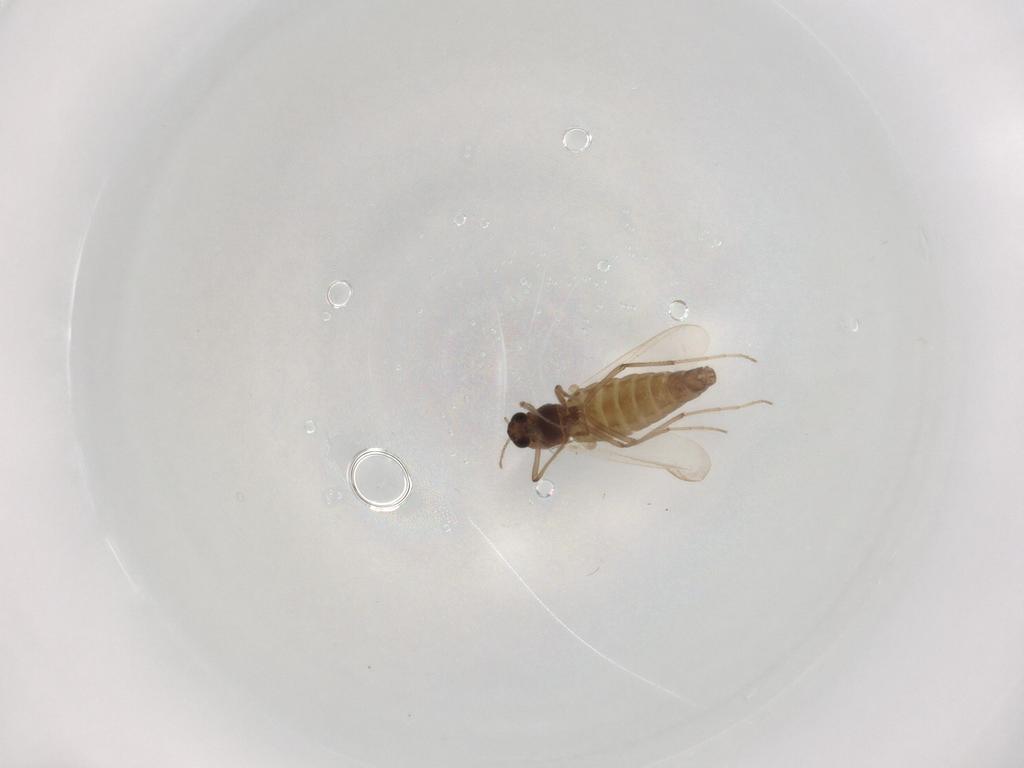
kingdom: Animalia
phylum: Arthropoda
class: Insecta
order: Diptera
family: Chironomidae
